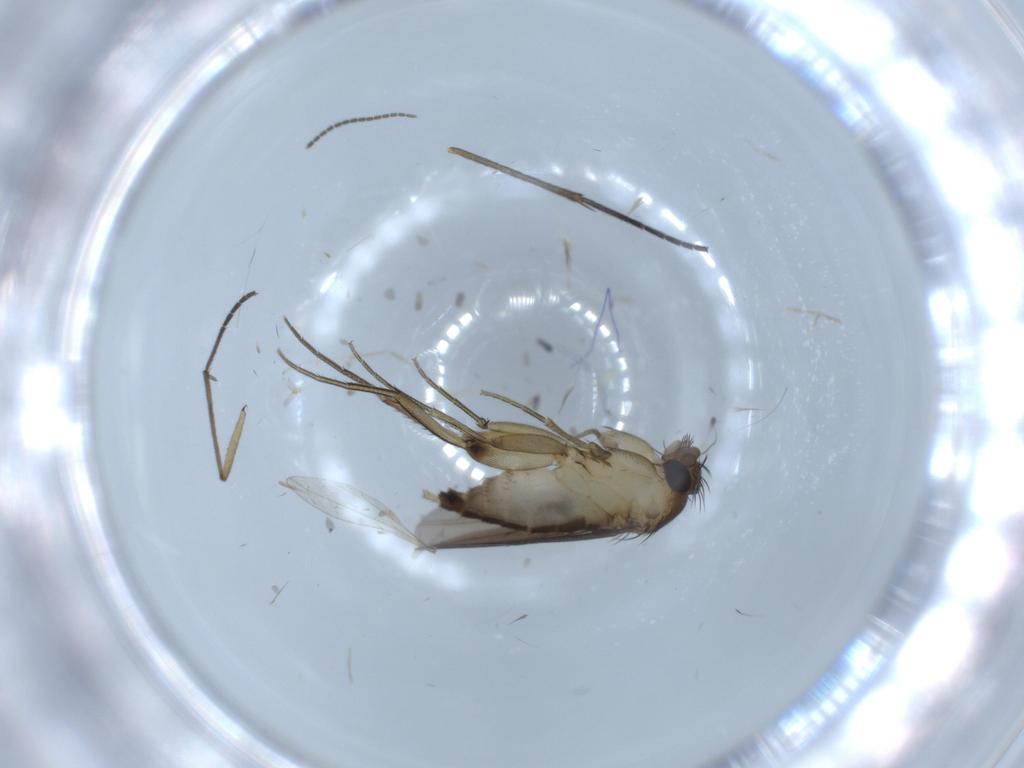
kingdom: Animalia
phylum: Arthropoda
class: Insecta
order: Diptera
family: Phoridae
